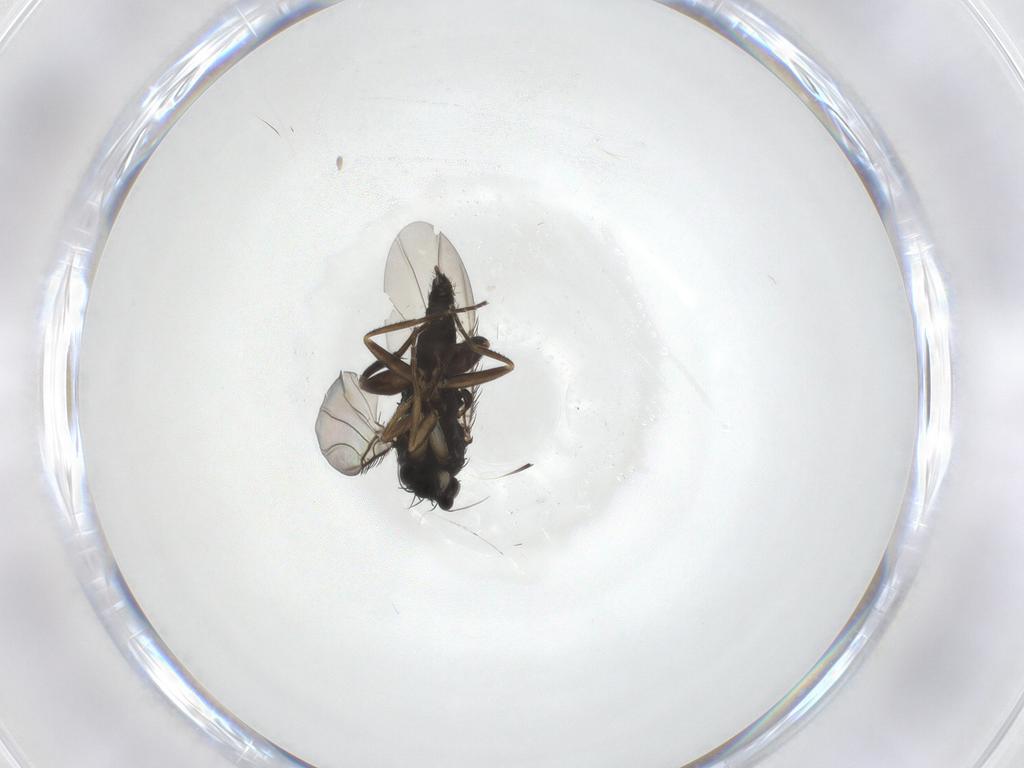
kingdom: Animalia
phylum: Arthropoda
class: Insecta
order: Diptera
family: Phoridae
